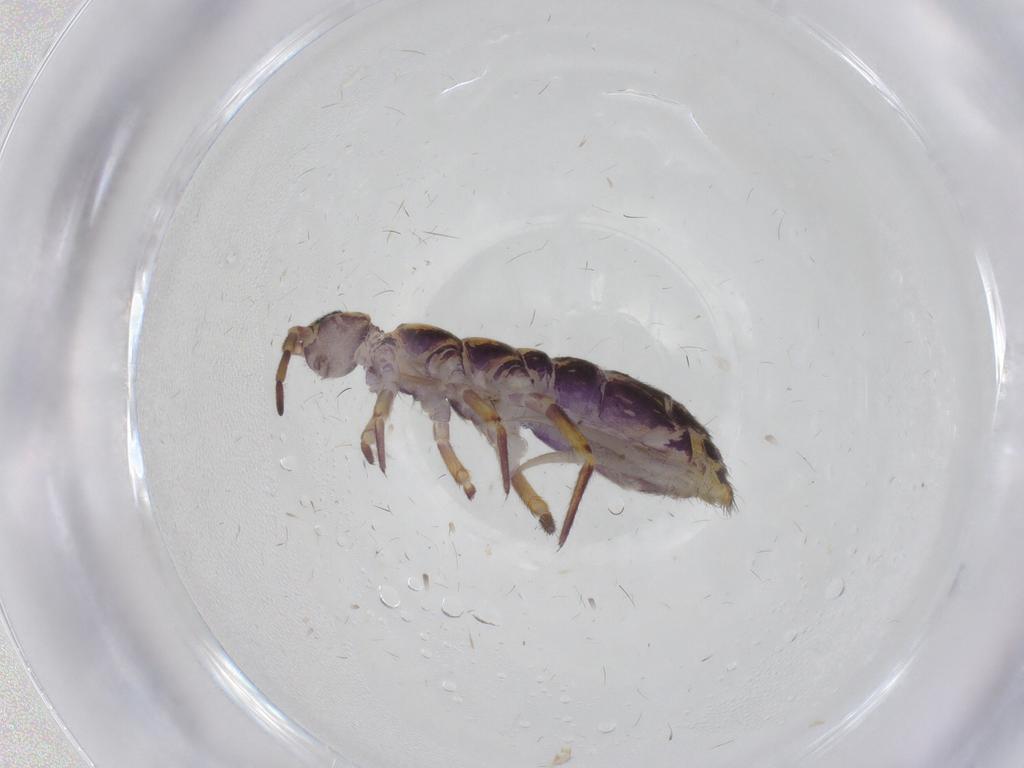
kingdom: Animalia
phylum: Arthropoda
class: Collembola
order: Entomobryomorpha
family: Isotomidae
